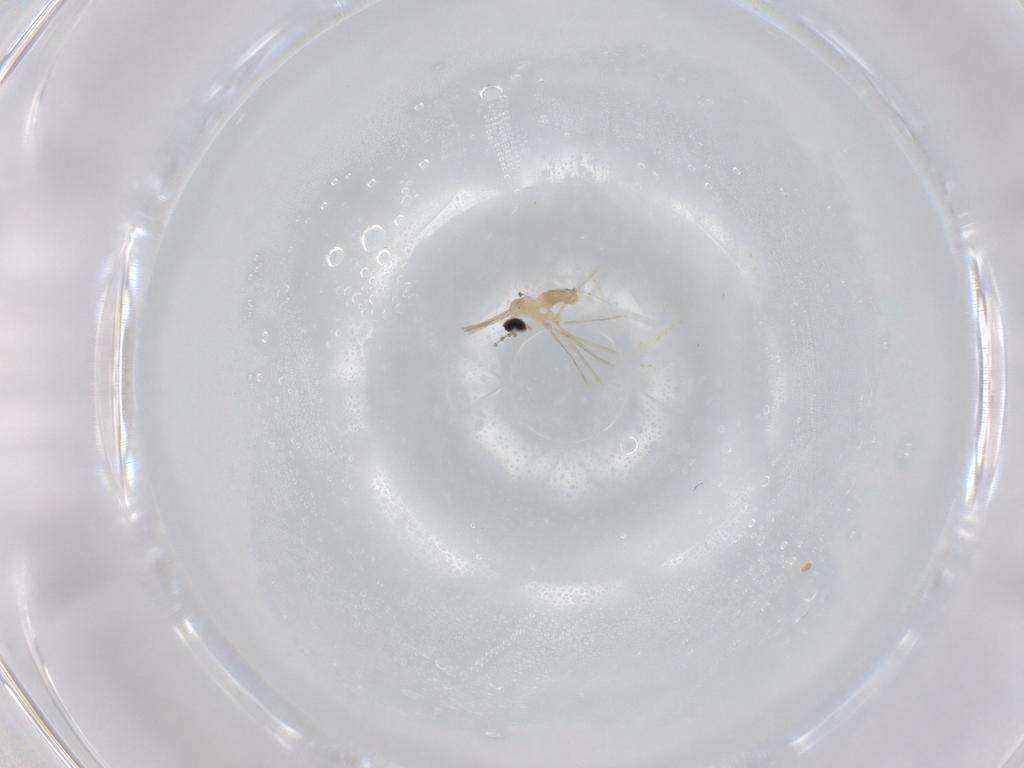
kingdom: Animalia
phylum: Arthropoda
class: Insecta
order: Diptera
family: Cecidomyiidae
